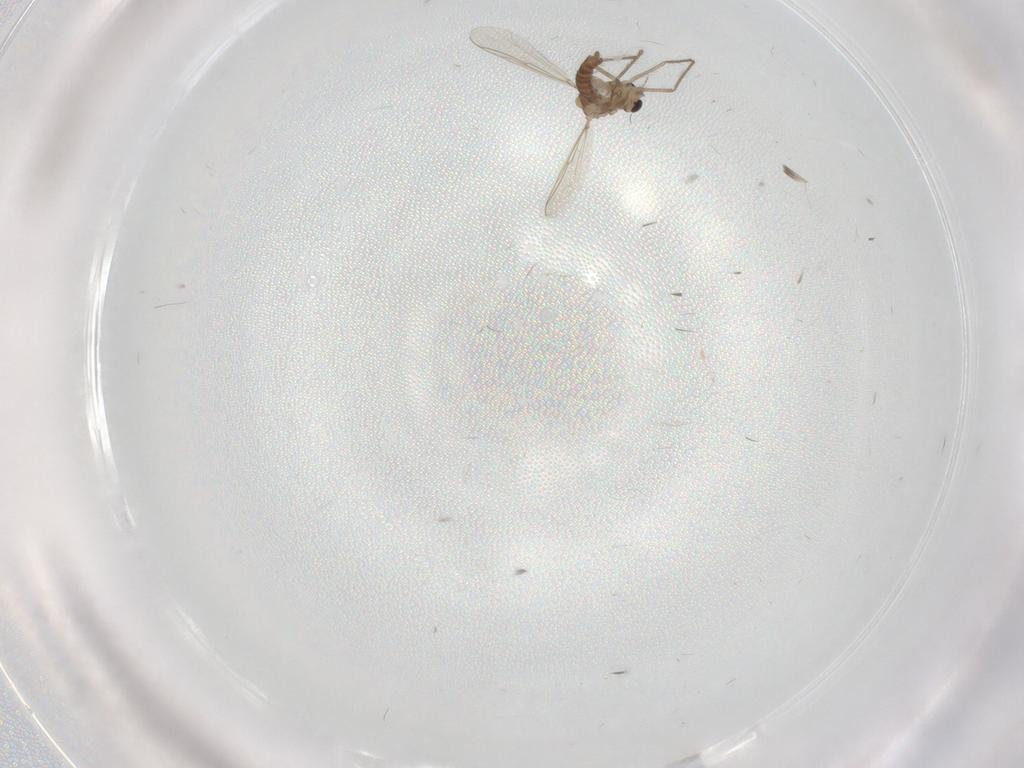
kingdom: Animalia
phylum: Arthropoda
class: Insecta
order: Diptera
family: Chironomidae
